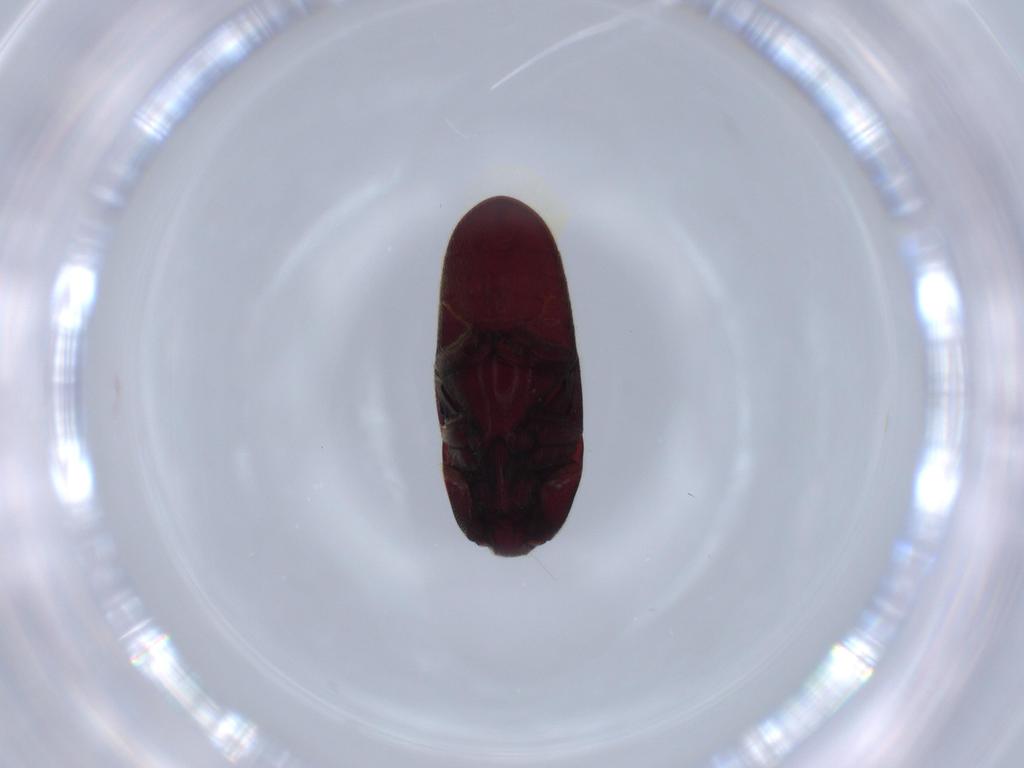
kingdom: Animalia
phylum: Arthropoda
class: Insecta
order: Coleoptera
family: Throscidae
